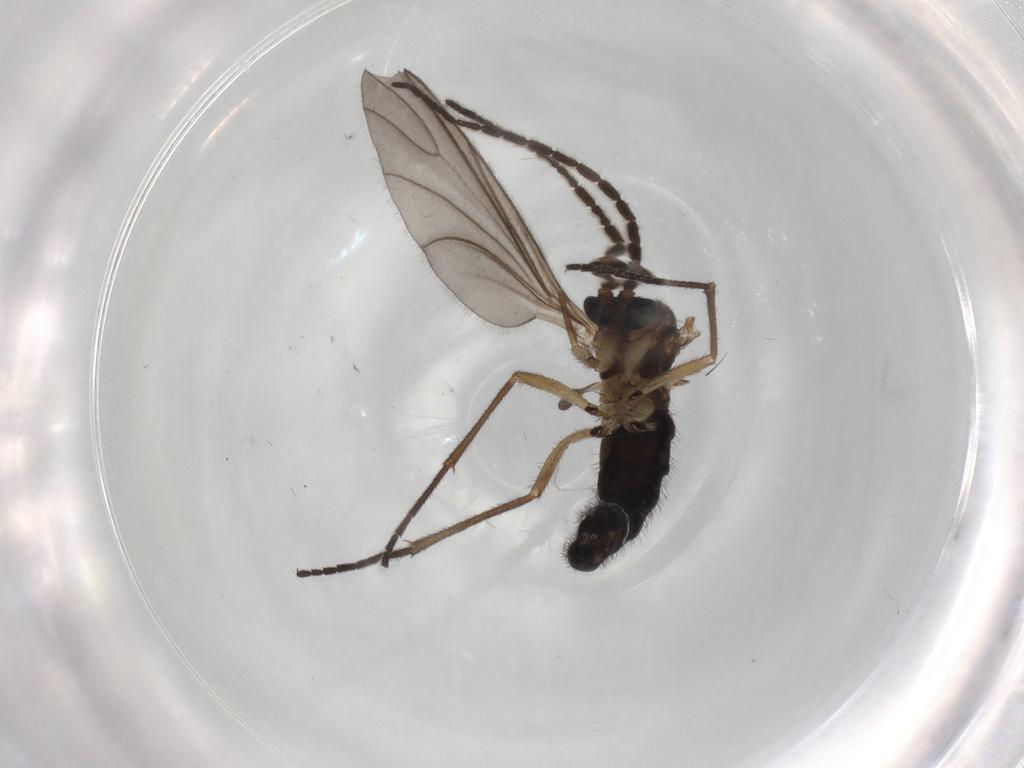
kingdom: Animalia
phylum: Arthropoda
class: Insecta
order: Diptera
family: Sciaridae
